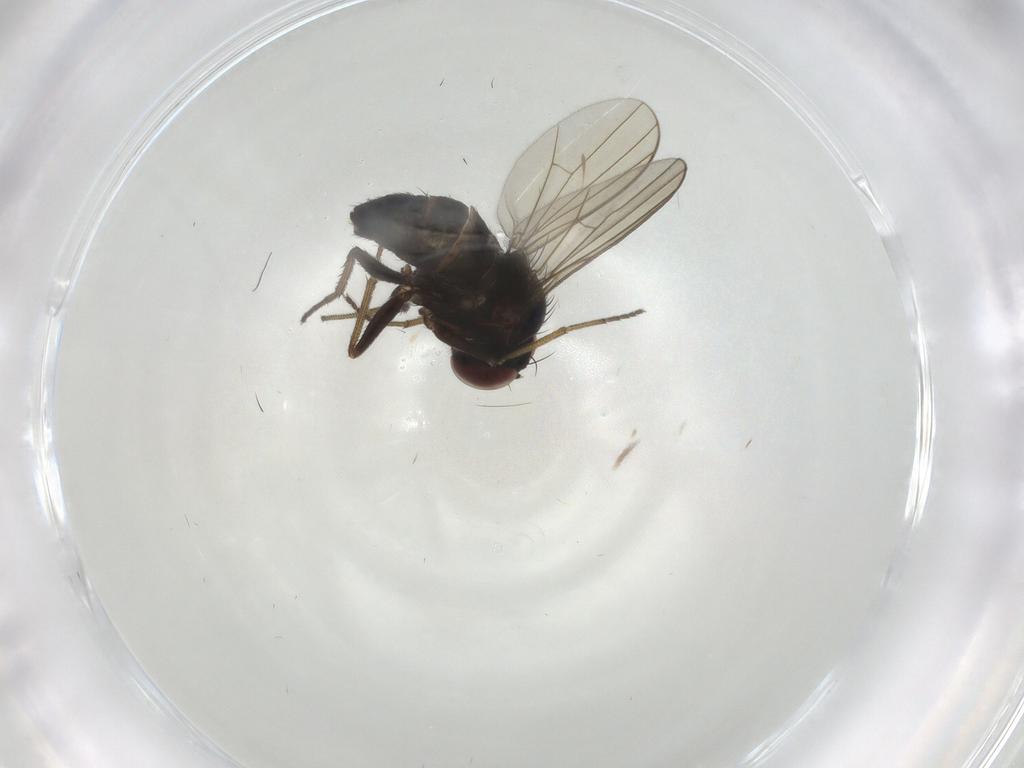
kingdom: Animalia
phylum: Arthropoda
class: Insecta
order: Diptera
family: Dolichopodidae
